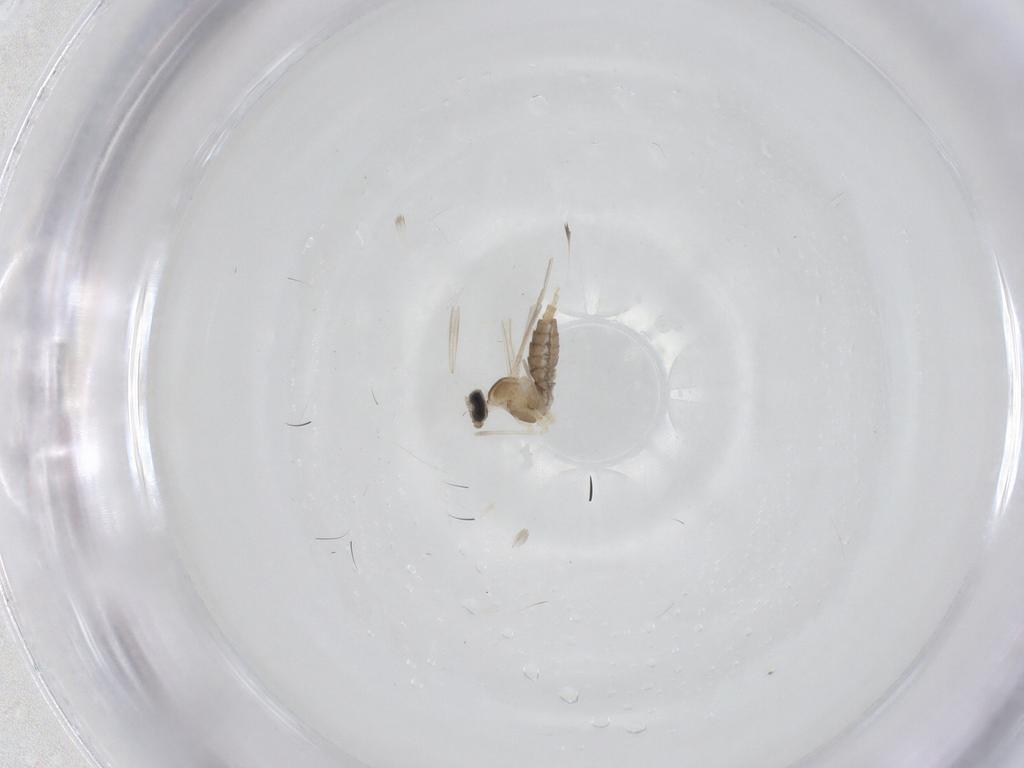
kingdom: Animalia
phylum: Arthropoda
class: Insecta
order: Diptera
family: Cecidomyiidae
